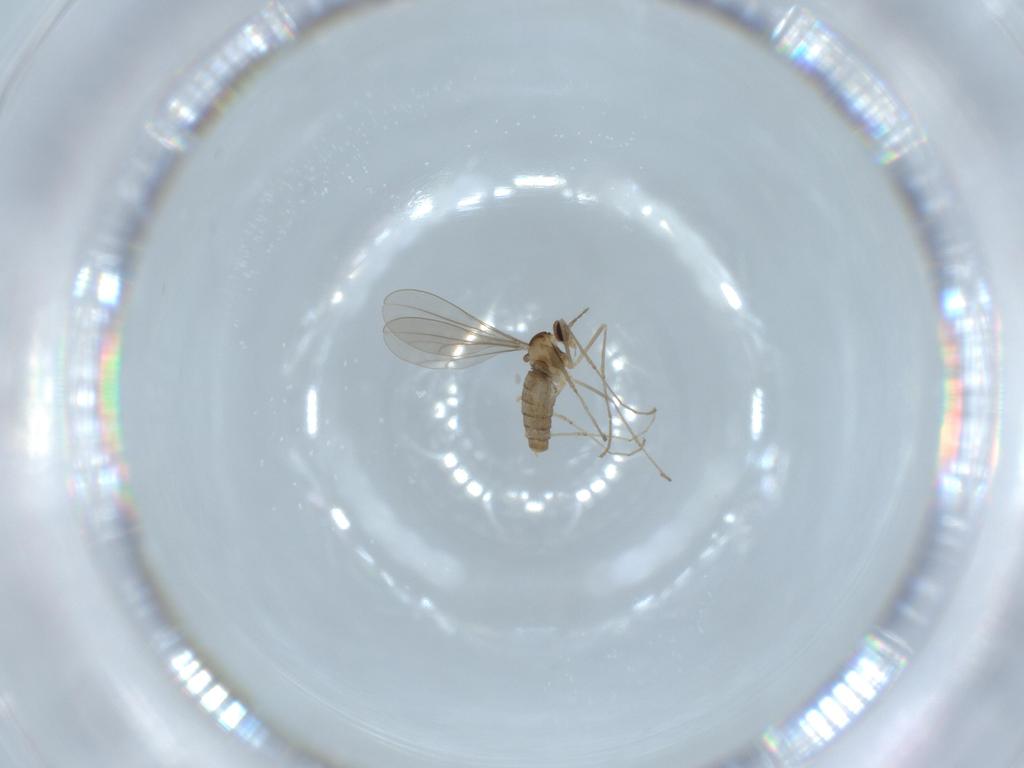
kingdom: Animalia
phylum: Arthropoda
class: Insecta
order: Diptera
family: Cecidomyiidae
